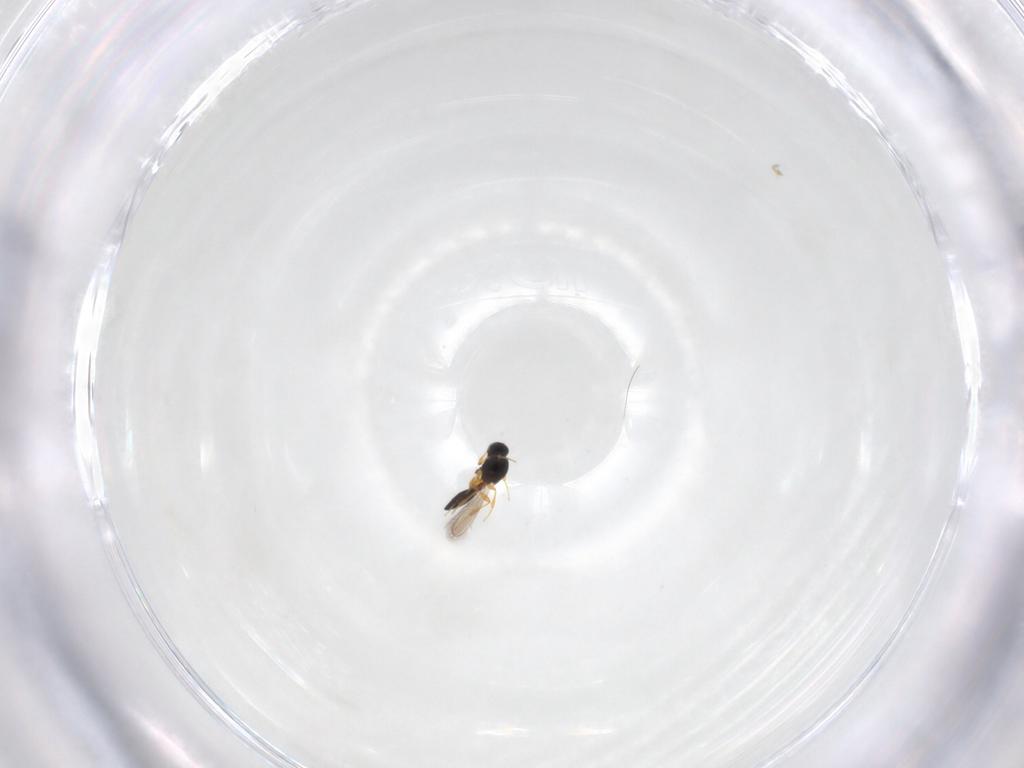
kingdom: Animalia
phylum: Arthropoda
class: Insecta
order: Hymenoptera
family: Platygastridae
